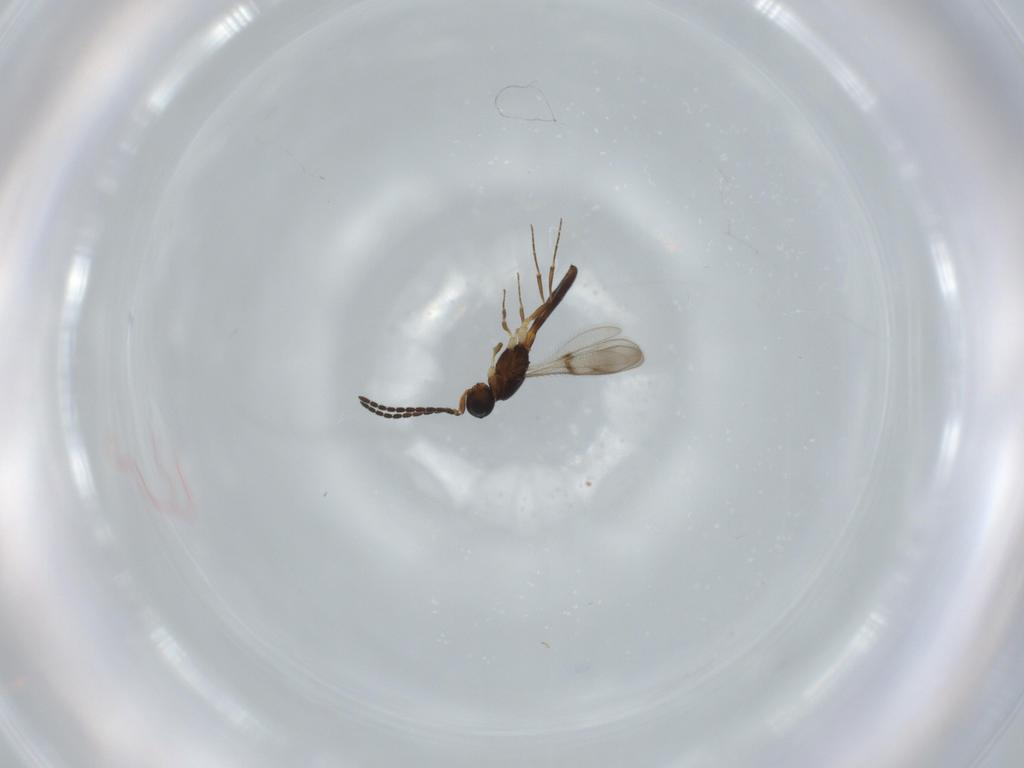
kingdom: Animalia
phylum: Arthropoda
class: Insecta
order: Hymenoptera
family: Scelionidae
